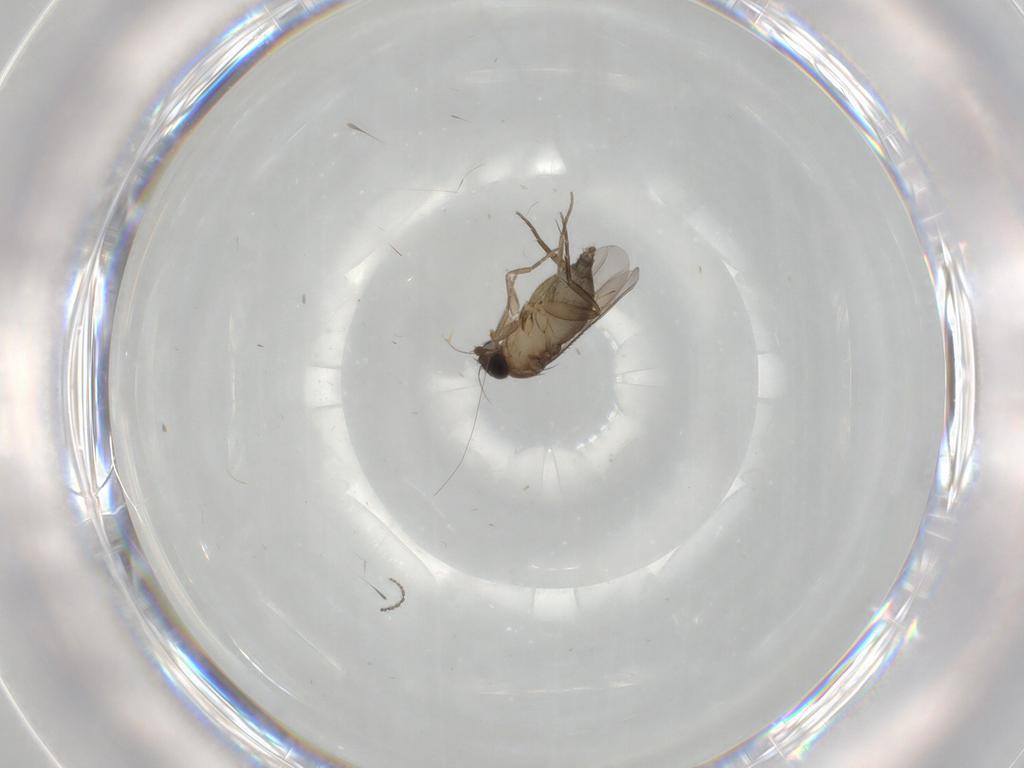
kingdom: Animalia
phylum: Arthropoda
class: Insecta
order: Diptera
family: Phoridae
